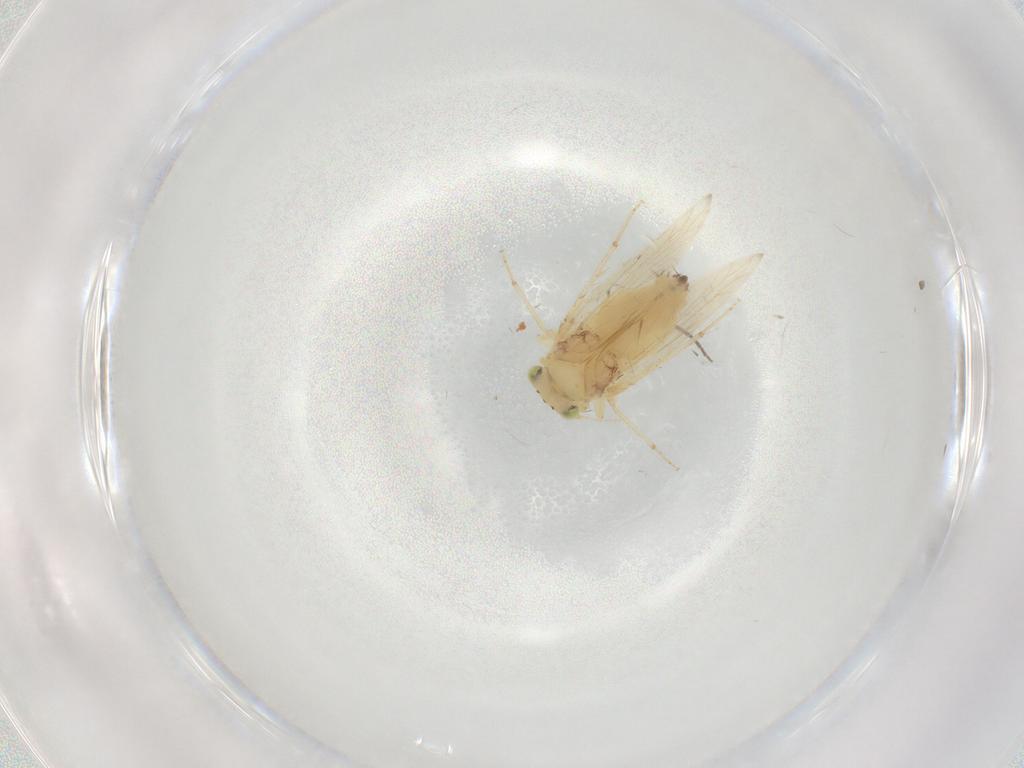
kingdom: Animalia
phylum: Arthropoda
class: Insecta
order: Psocodea
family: Lepidopsocidae
